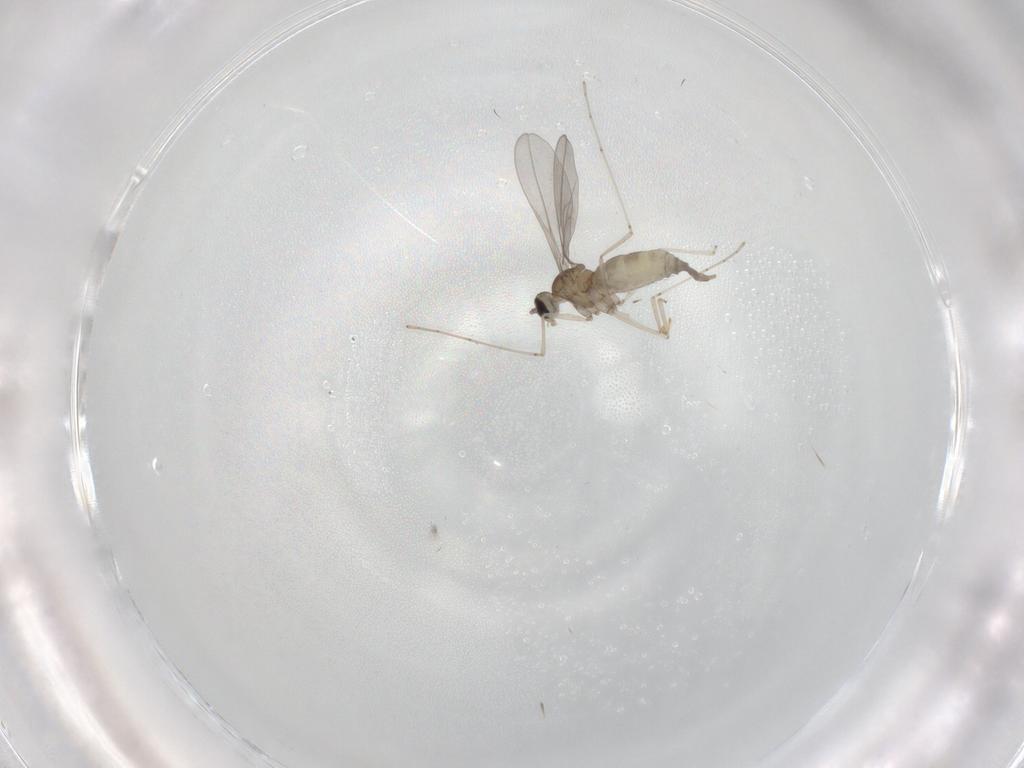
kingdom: Animalia
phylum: Arthropoda
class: Insecta
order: Diptera
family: Cecidomyiidae
